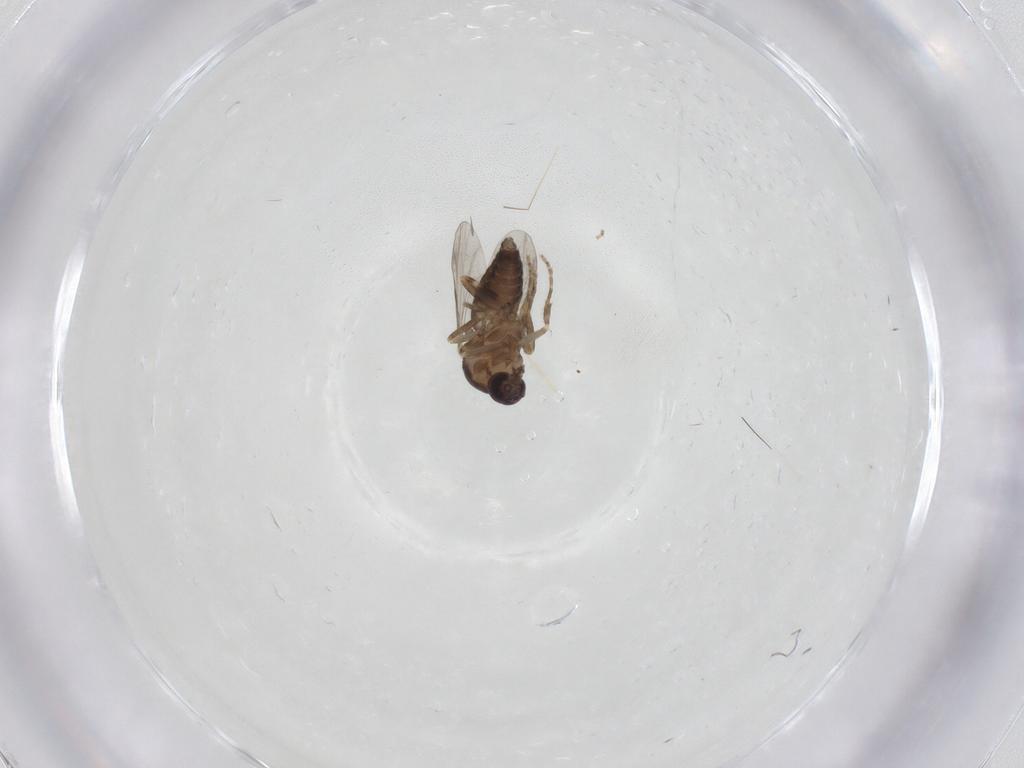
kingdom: Animalia
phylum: Arthropoda
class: Insecta
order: Diptera
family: Ceratopogonidae
